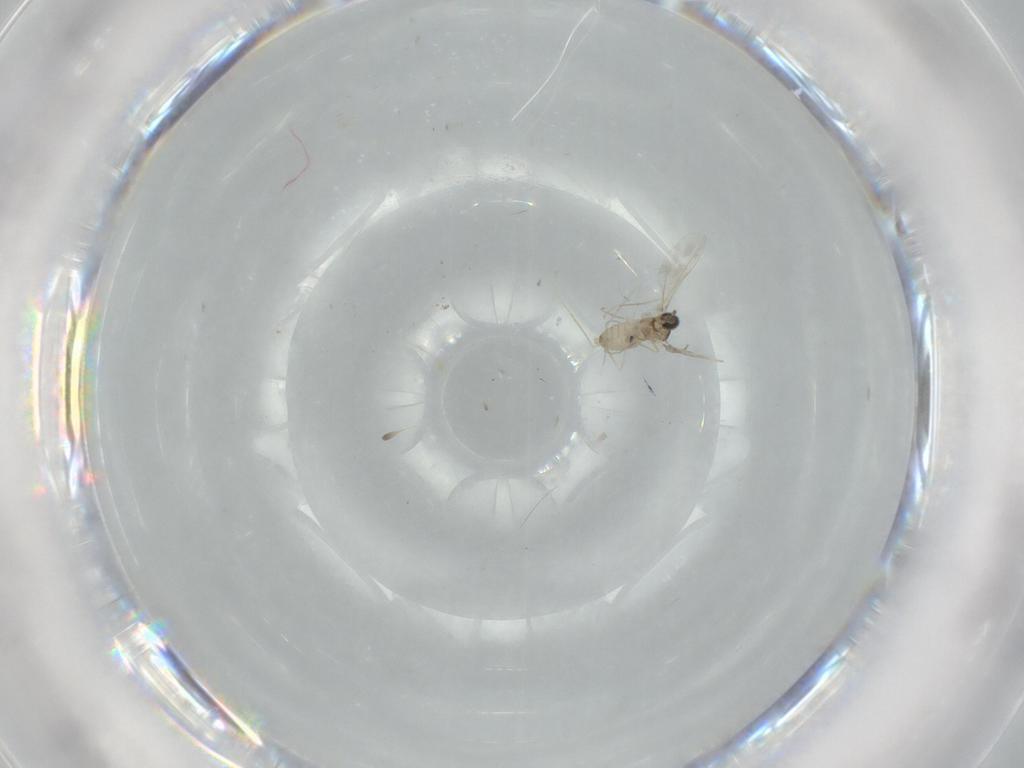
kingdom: Animalia
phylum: Arthropoda
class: Insecta
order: Diptera
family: Cecidomyiidae
